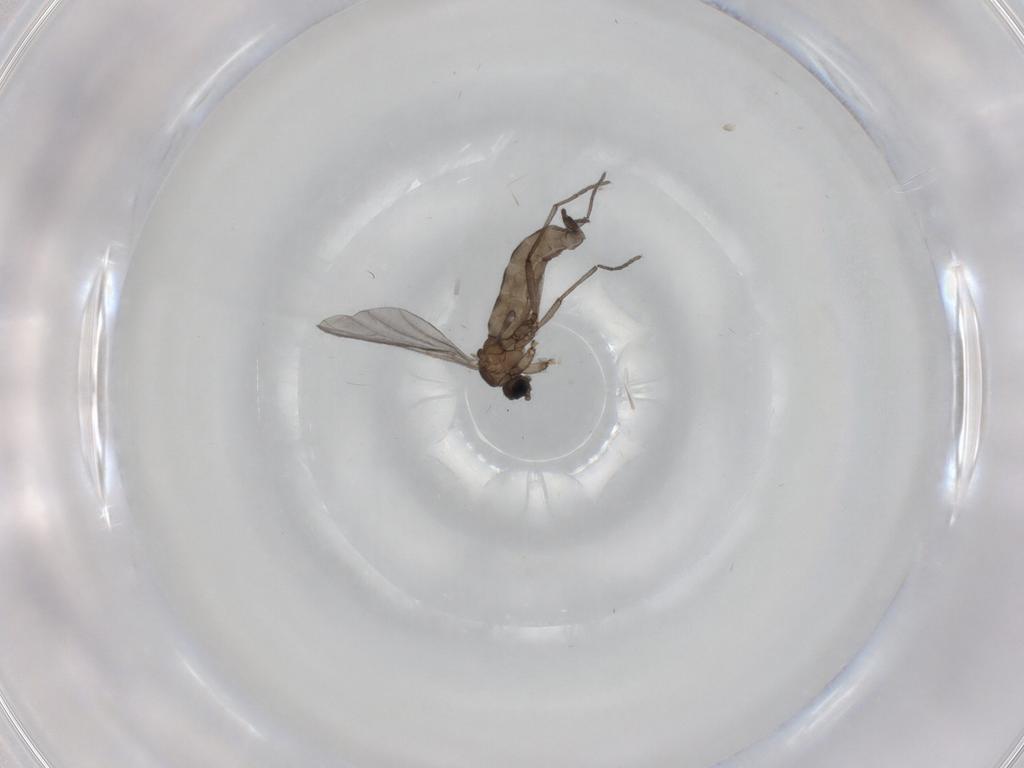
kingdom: Animalia
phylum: Arthropoda
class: Insecta
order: Diptera
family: Sciaridae
